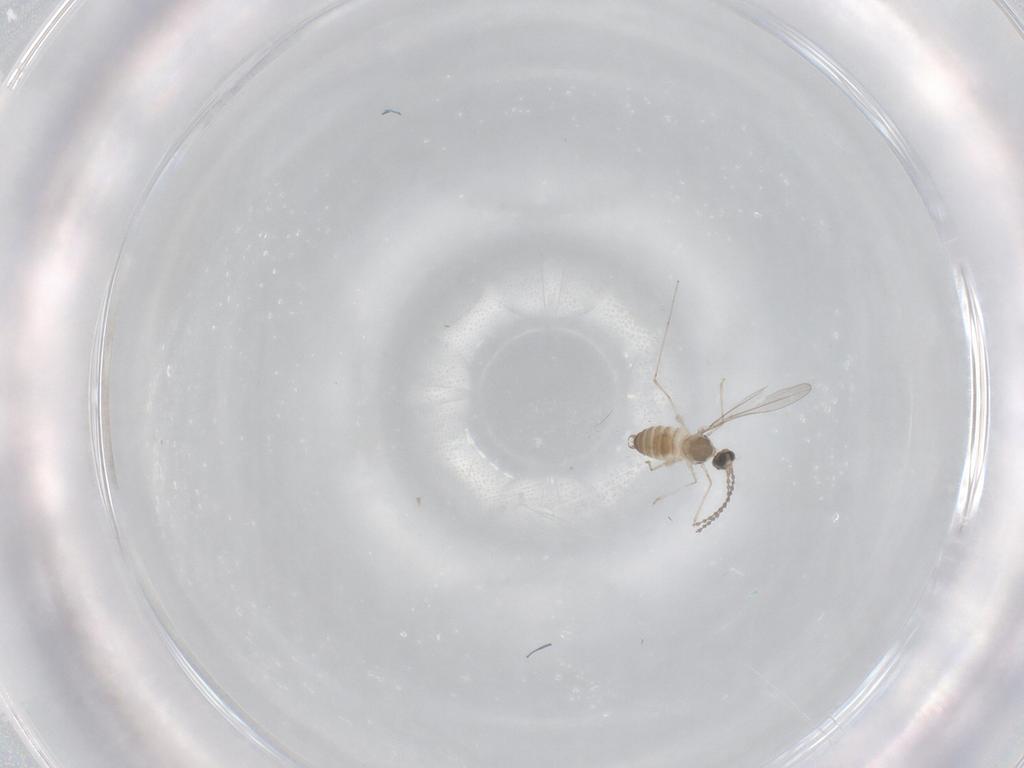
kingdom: Animalia
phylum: Arthropoda
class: Insecta
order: Diptera
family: Cecidomyiidae
